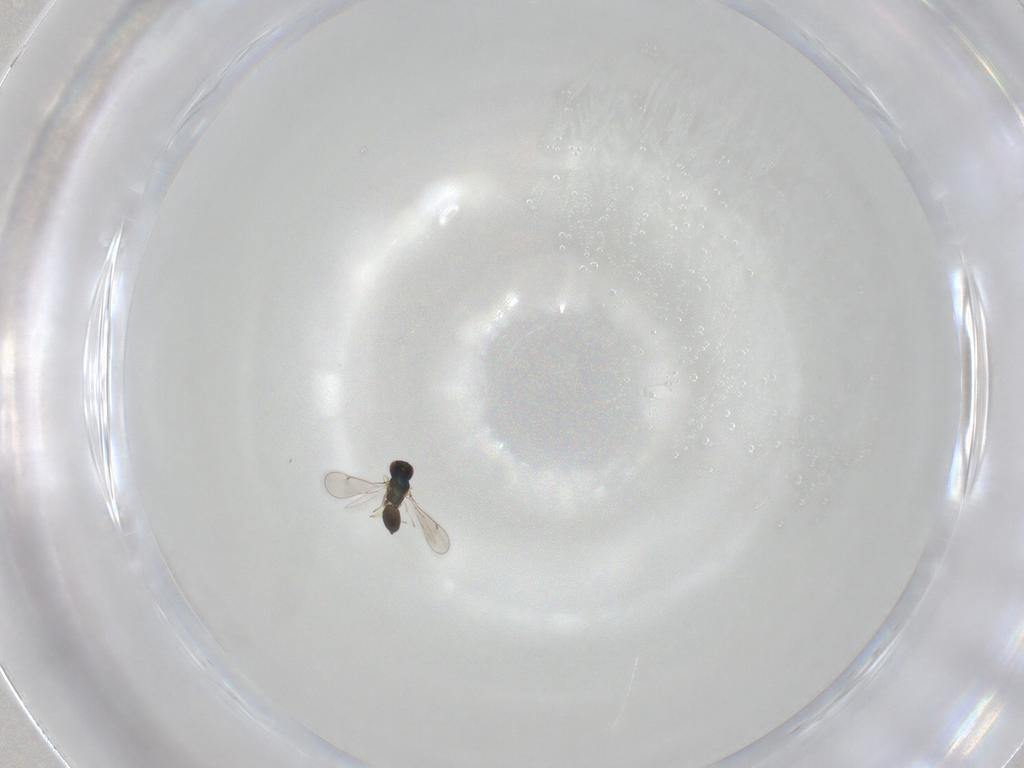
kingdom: Animalia
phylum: Arthropoda
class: Insecta
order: Hymenoptera
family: Eulophidae
